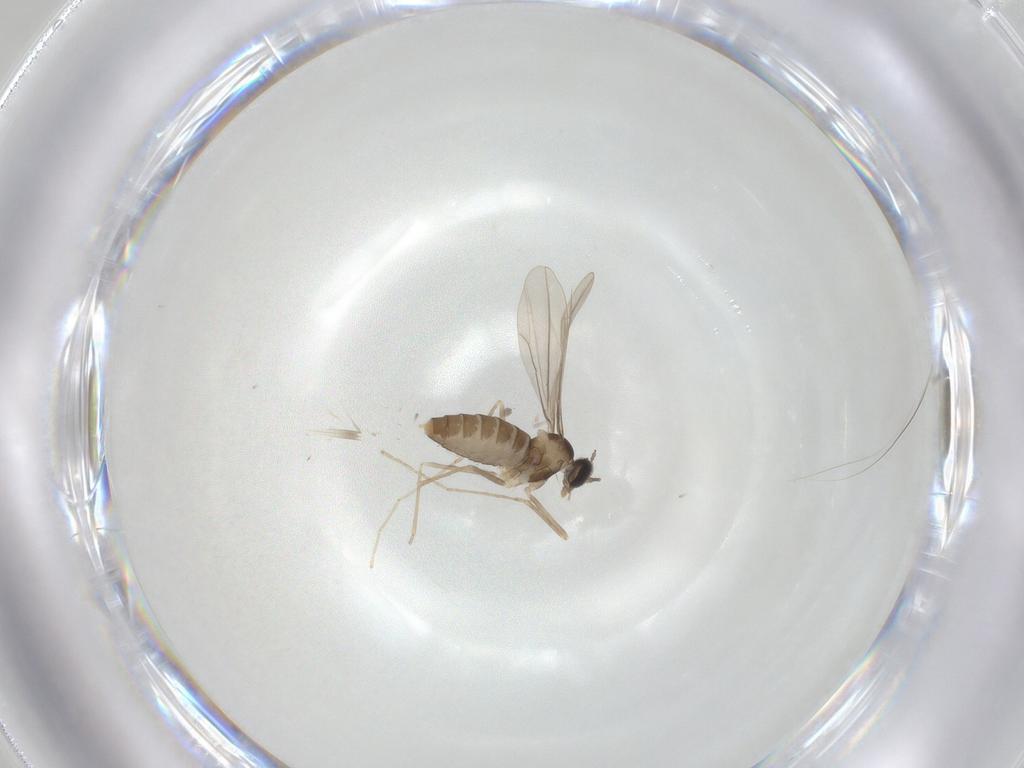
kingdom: Animalia
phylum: Arthropoda
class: Insecta
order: Diptera
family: Cecidomyiidae
